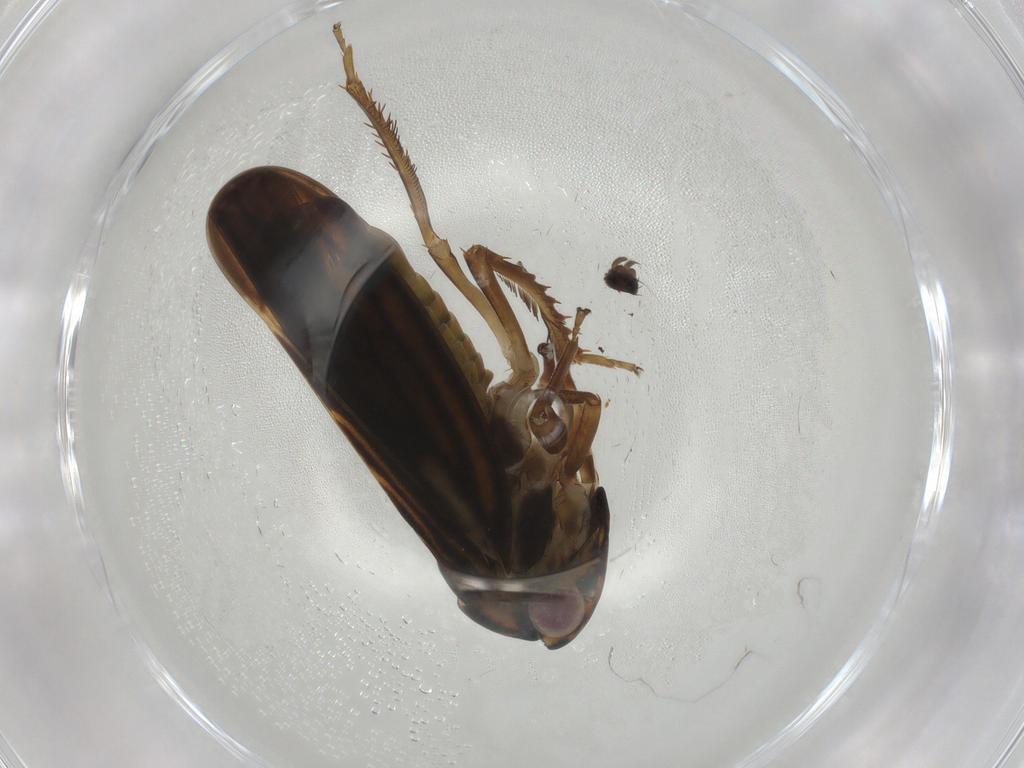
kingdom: Animalia
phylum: Arthropoda
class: Insecta
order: Hemiptera
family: Cicadellidae
